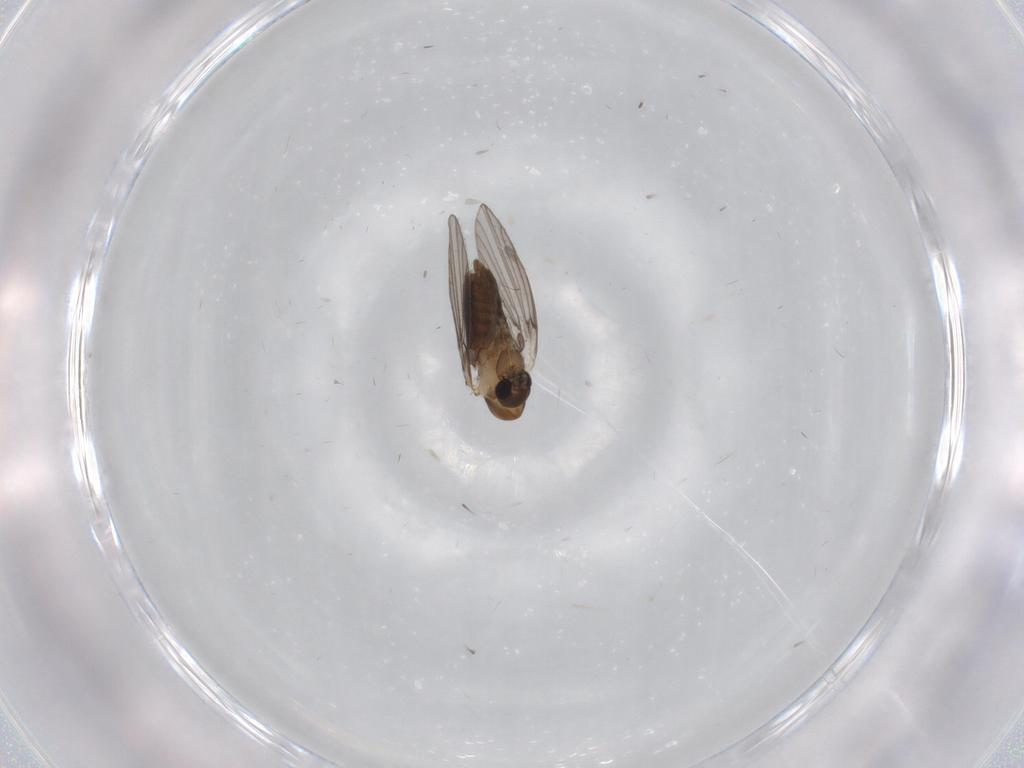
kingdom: Animalia
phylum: Arthropoda
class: Insecta
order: Diptera
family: Psychodidae
